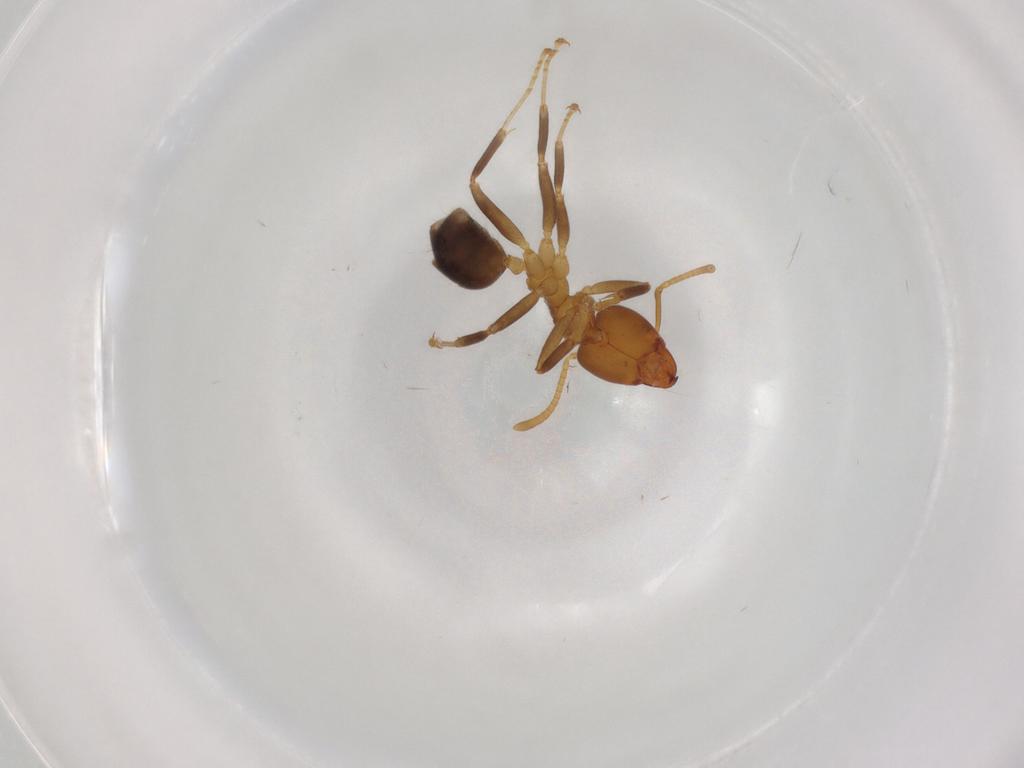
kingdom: Animalia
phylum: Arthropoda
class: Insecta
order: Hymenoptera
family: Formicidae
